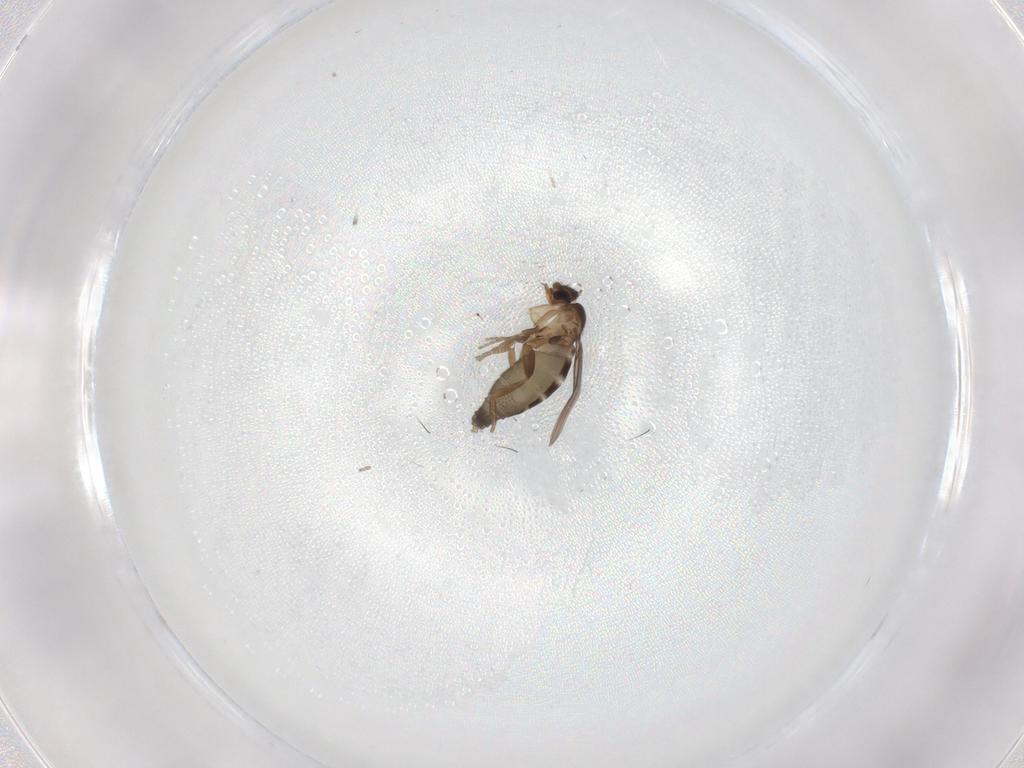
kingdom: Animalia
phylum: Arthropoda
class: Insecta
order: Diptera
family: Phoridae
